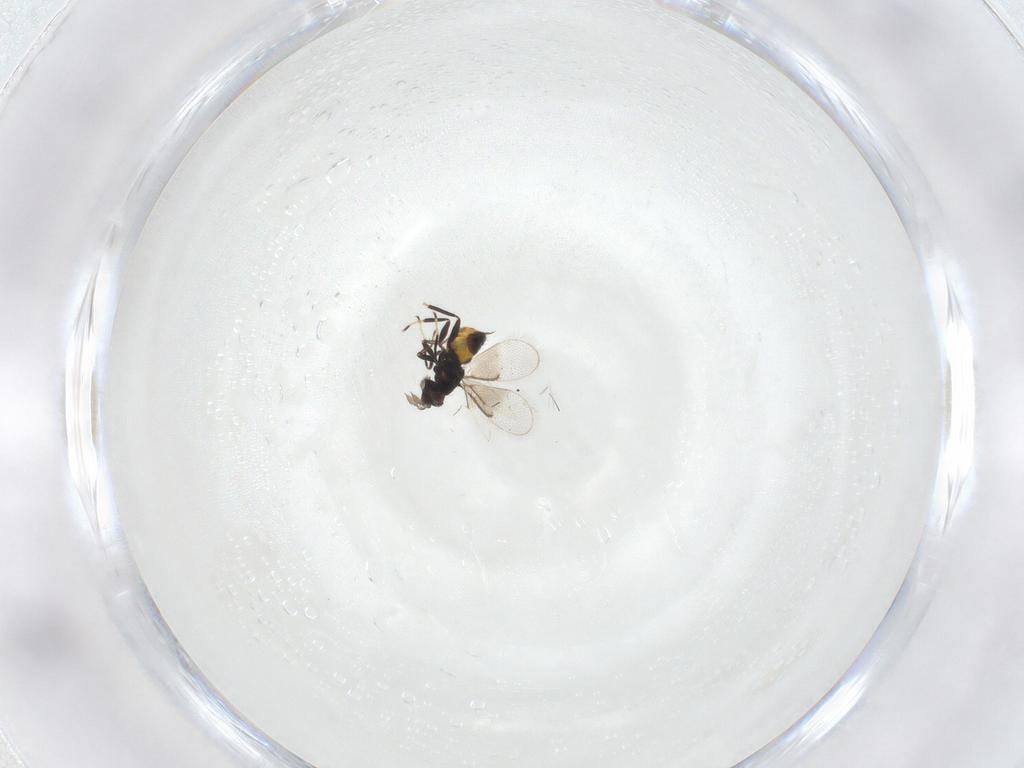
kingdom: Animalia
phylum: Arthropoda
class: Insecta
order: Hymenoptera
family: Eulophidae
